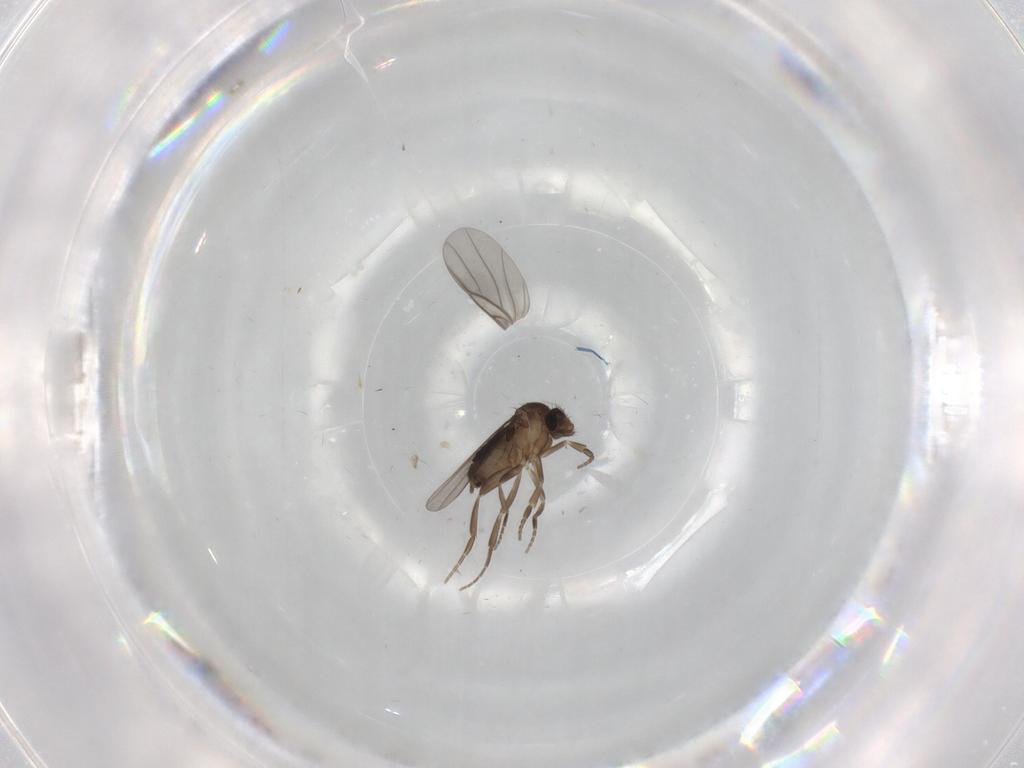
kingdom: Animalia
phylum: Arthropoda
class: Insecta
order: Diptera
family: Phoridae
